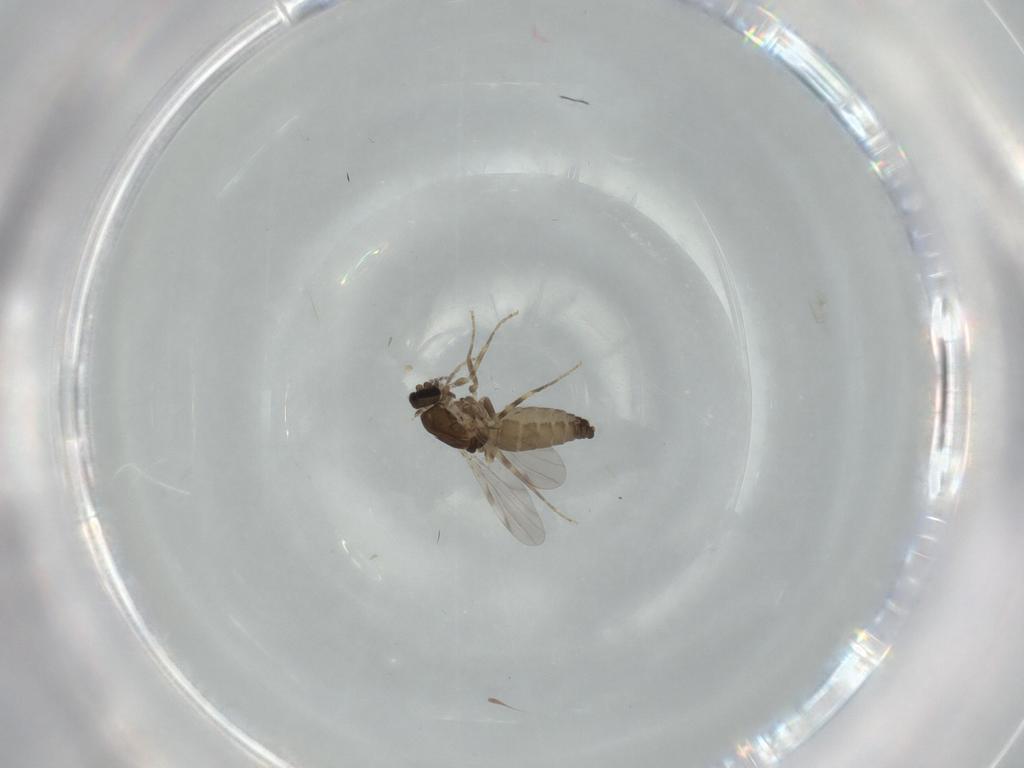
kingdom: Animalia
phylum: Arthropoda
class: Insecta
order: Diptera
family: Ceratopogonidae
